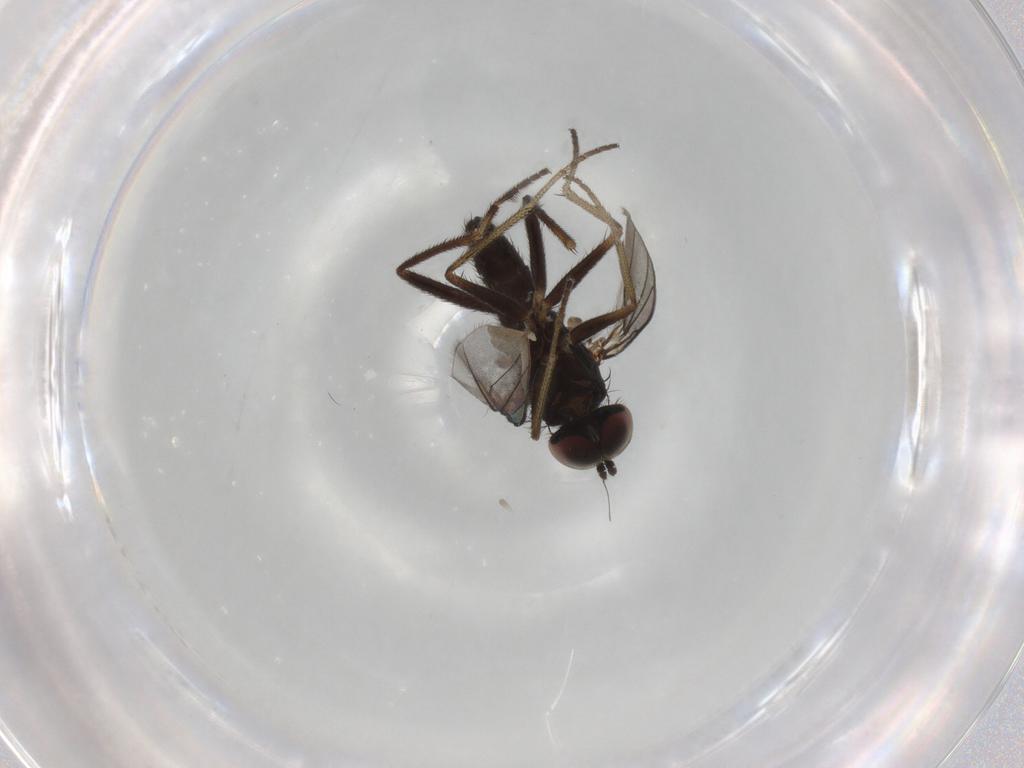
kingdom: Animalia
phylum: Arthropoda
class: Insecta
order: Diptera
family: Dolichopodidae
